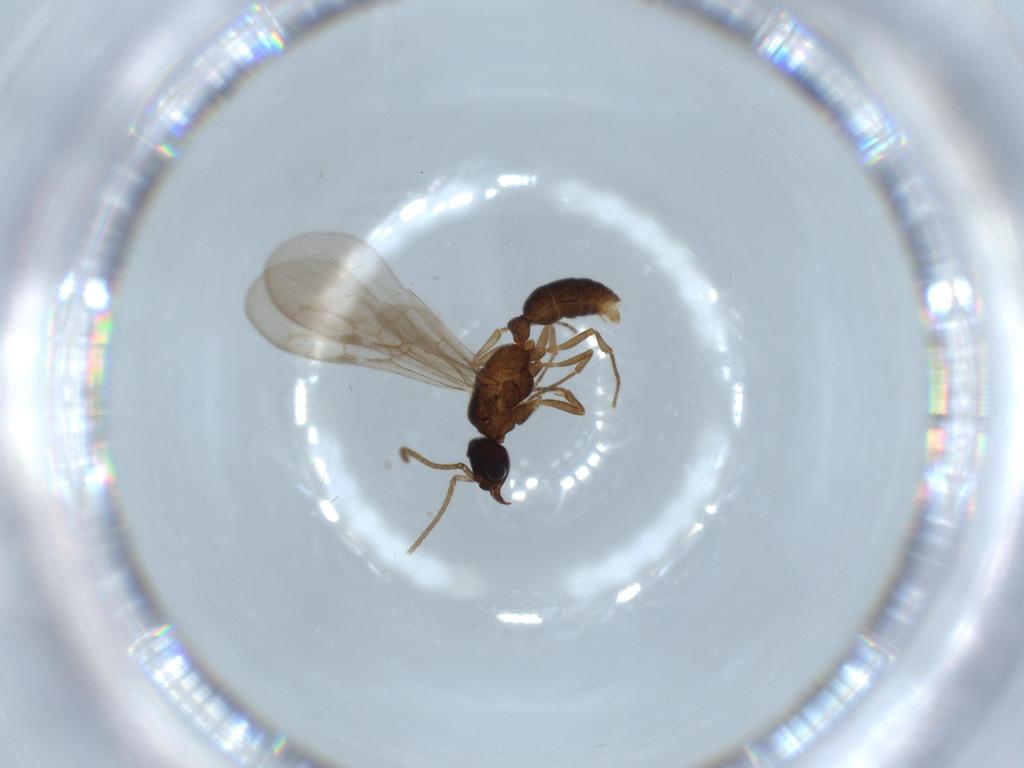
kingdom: Animalia
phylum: Arthropoda
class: Insecta
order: Hymenoptera
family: Formicidae
